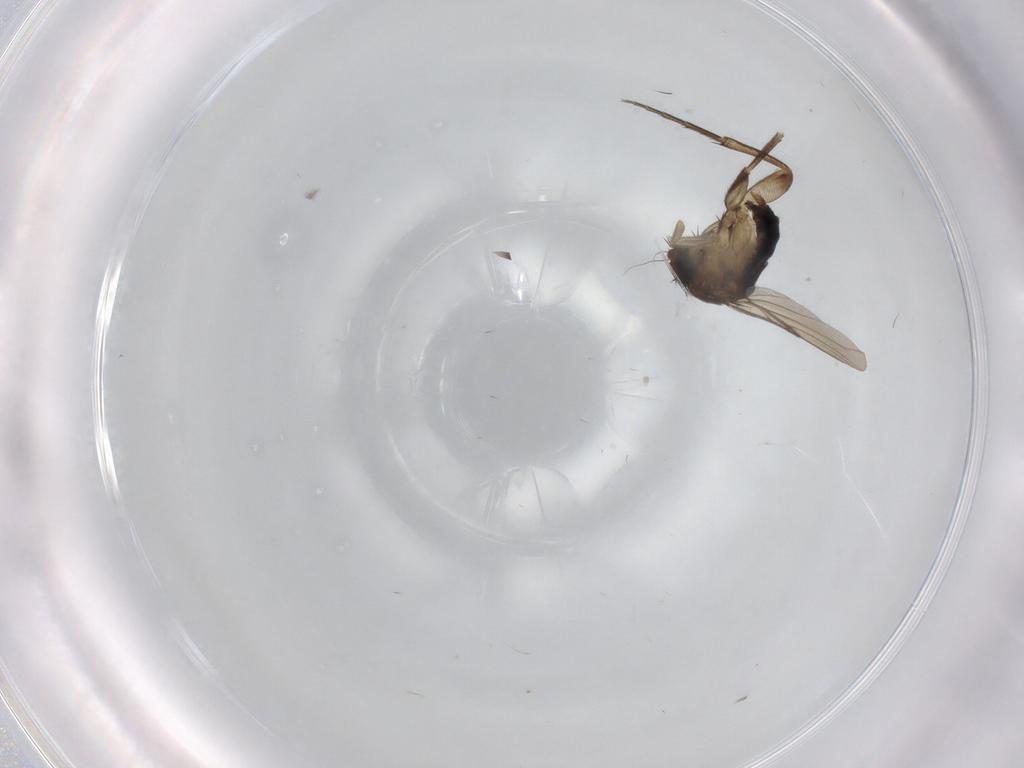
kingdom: Animalia
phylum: Arthropoda
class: Insecta
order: Diptera
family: Phoridae
